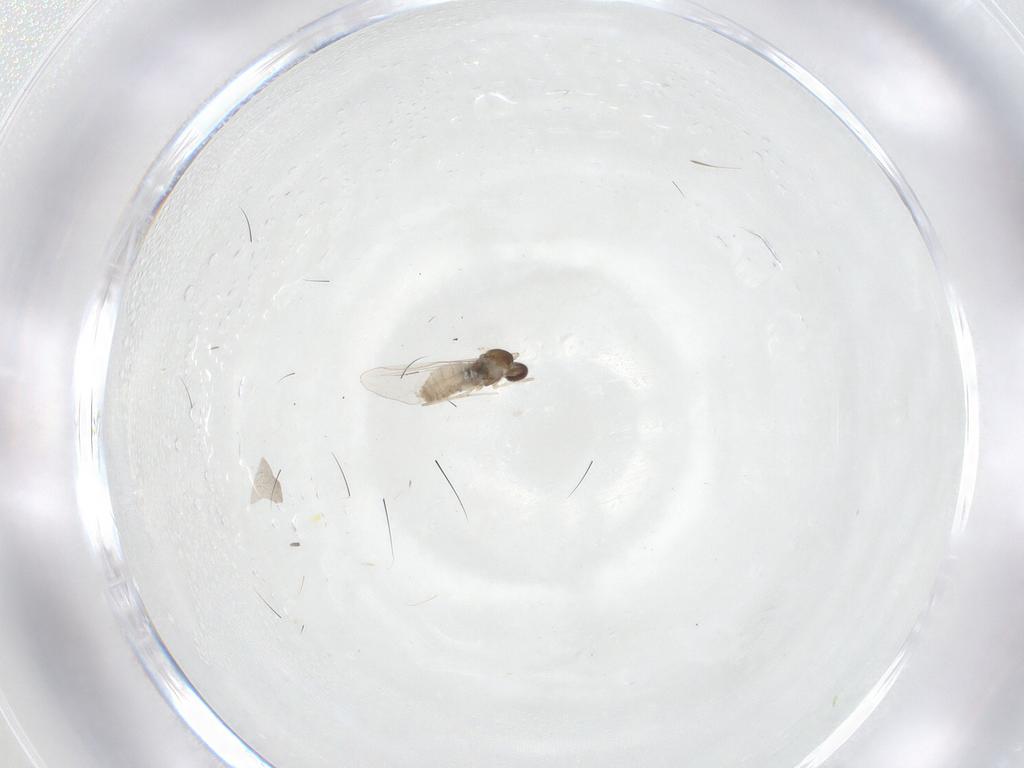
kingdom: Animalia
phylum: Arthropoda
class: Insecta
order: Diptera
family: Cecidomyiidae
